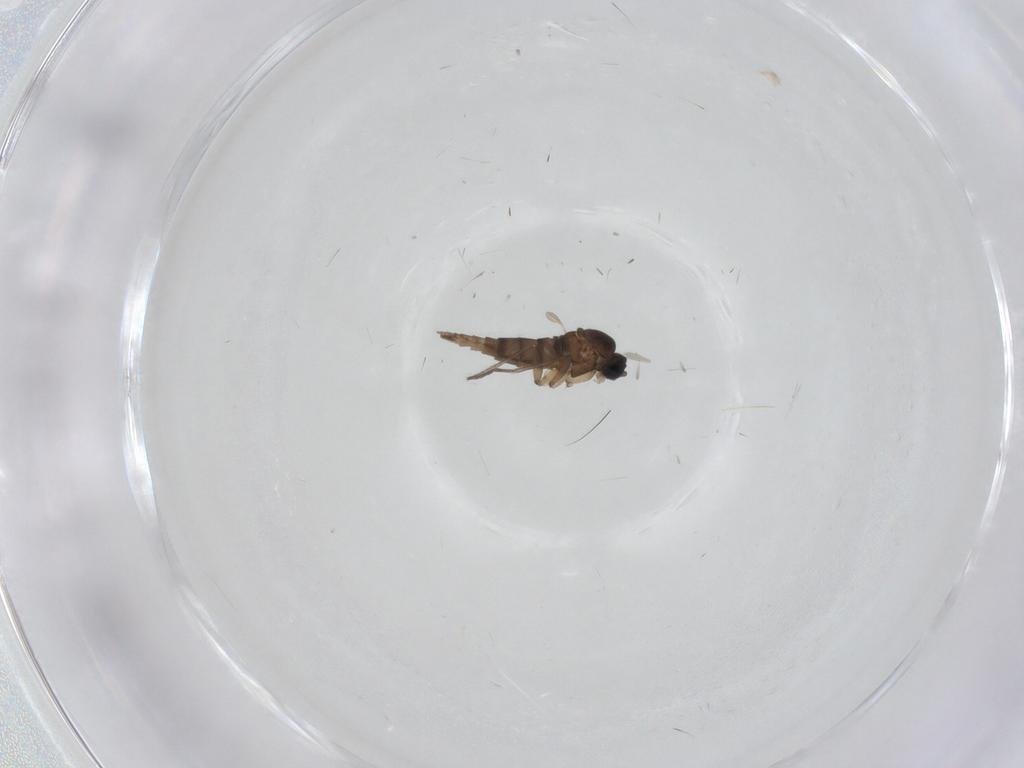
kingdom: Animalia
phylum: Arthropoda
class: Insecta
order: Diptera
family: Sciaridae
